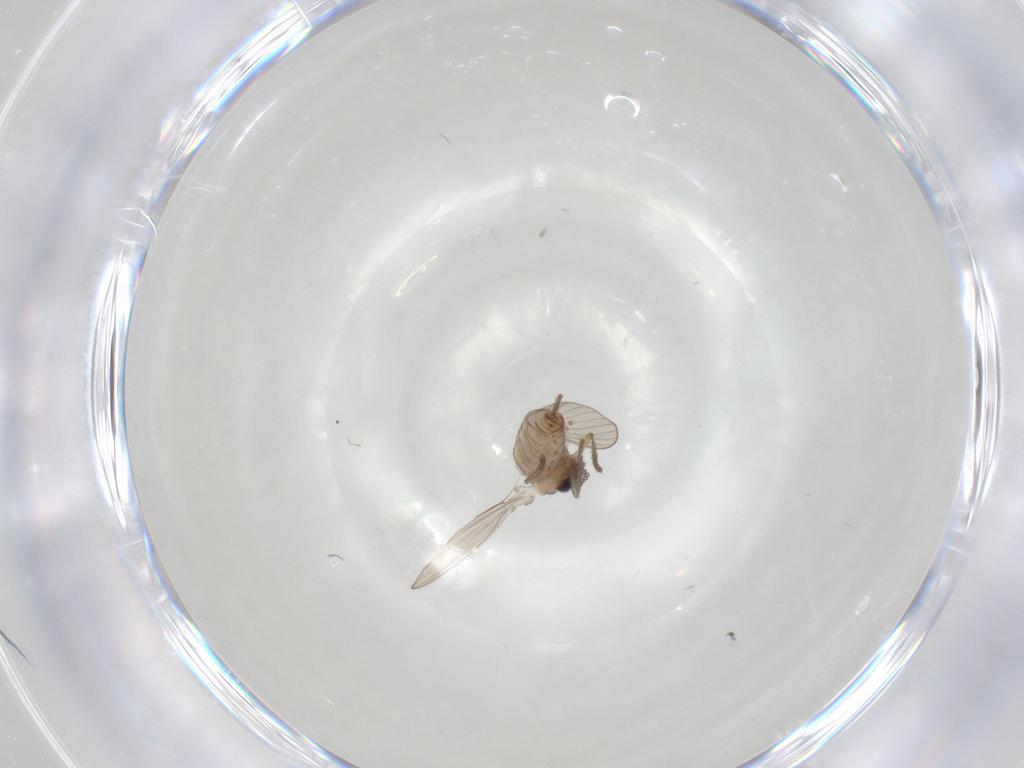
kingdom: Animalia
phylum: Arthropoda
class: Insecta
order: Diptera
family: Psychodidae
